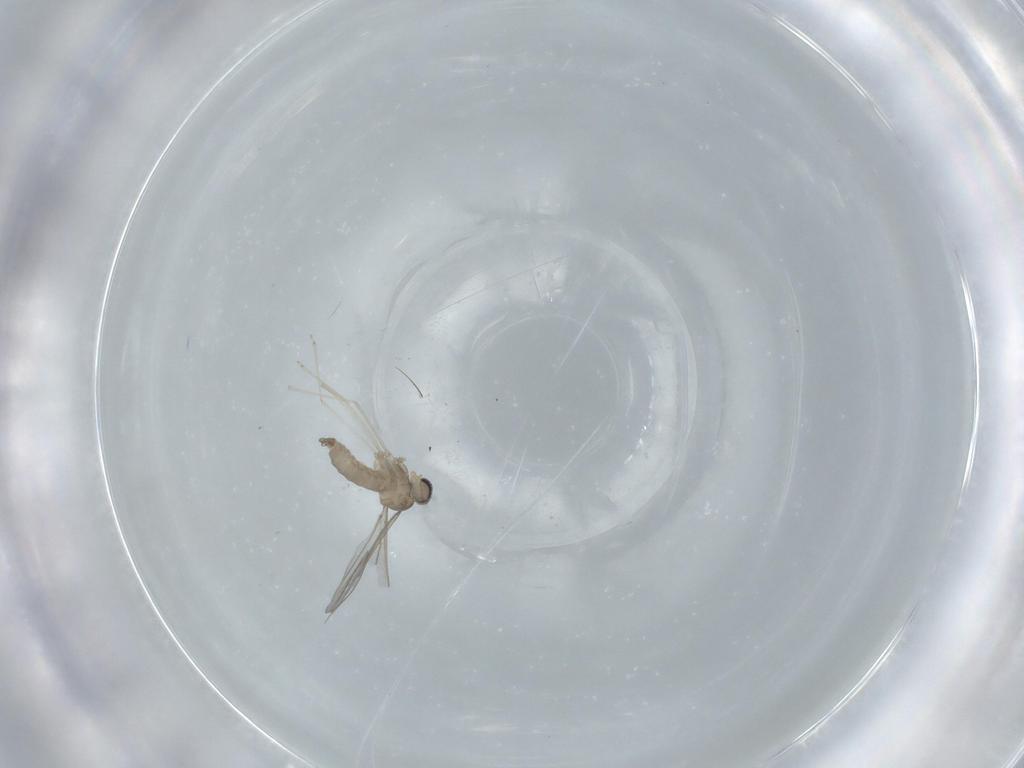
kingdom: Animalia
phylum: Arthropoda
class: Insecta
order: Diptera
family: Cecidomyiidae
